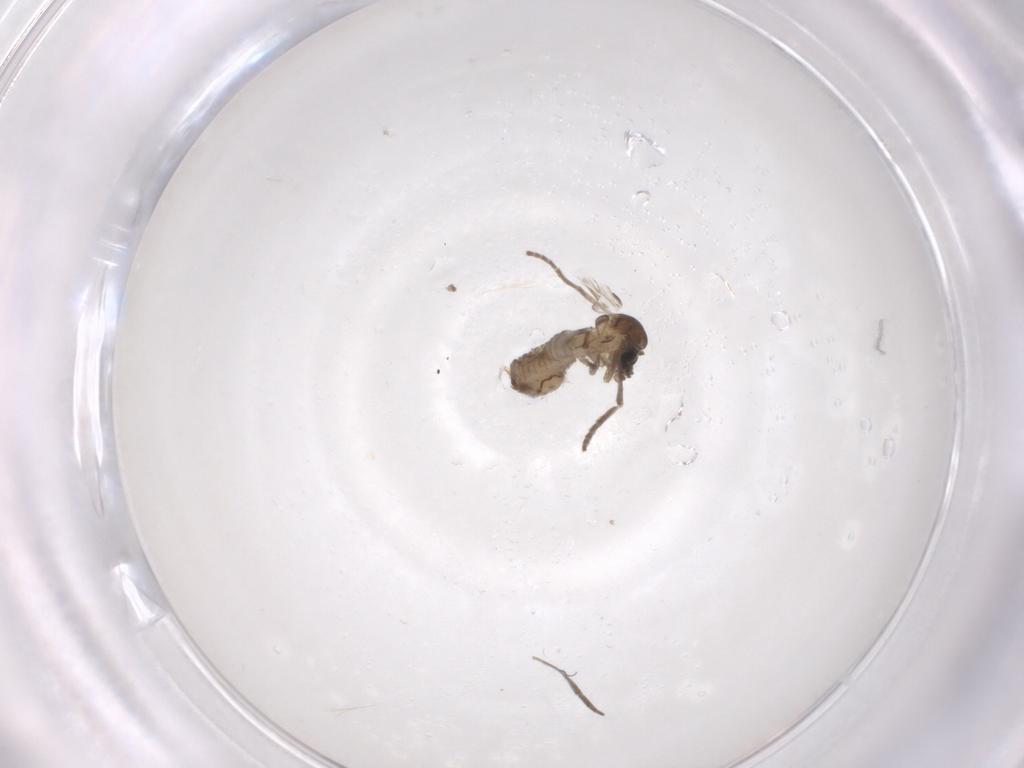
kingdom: Animalia
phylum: Arthropoda
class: Insecta
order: Diptera
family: Psychodidae
